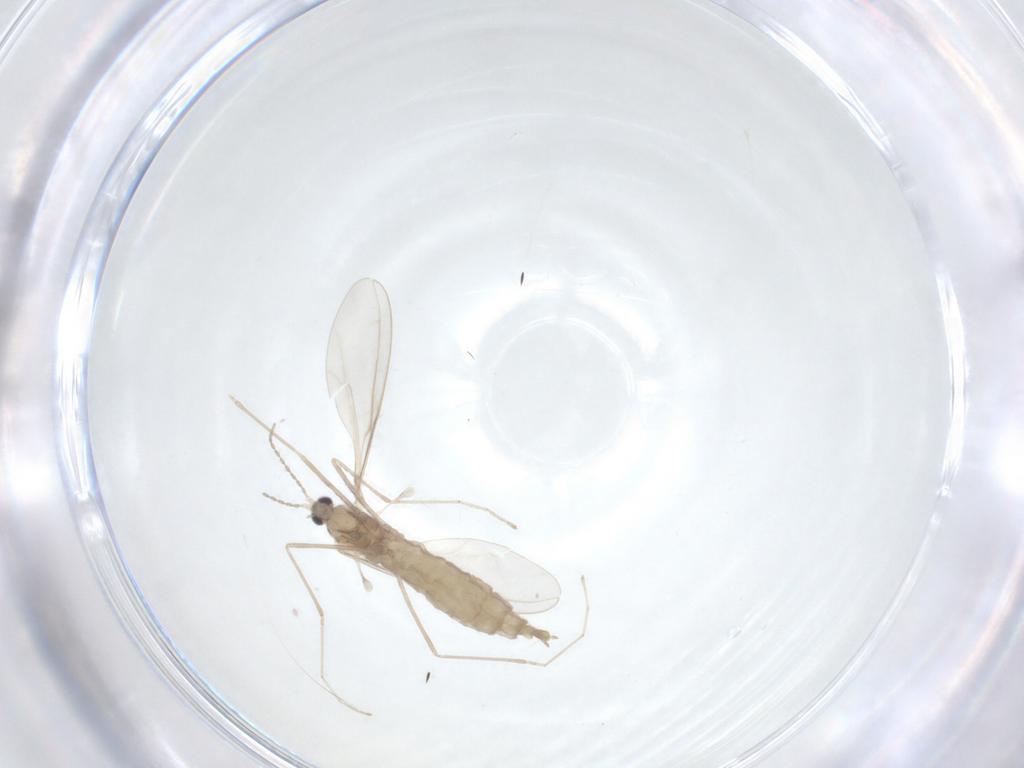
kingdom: Animalia
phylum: Arthropoda
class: Insecta
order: Diptera
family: Cecidomyiidae
